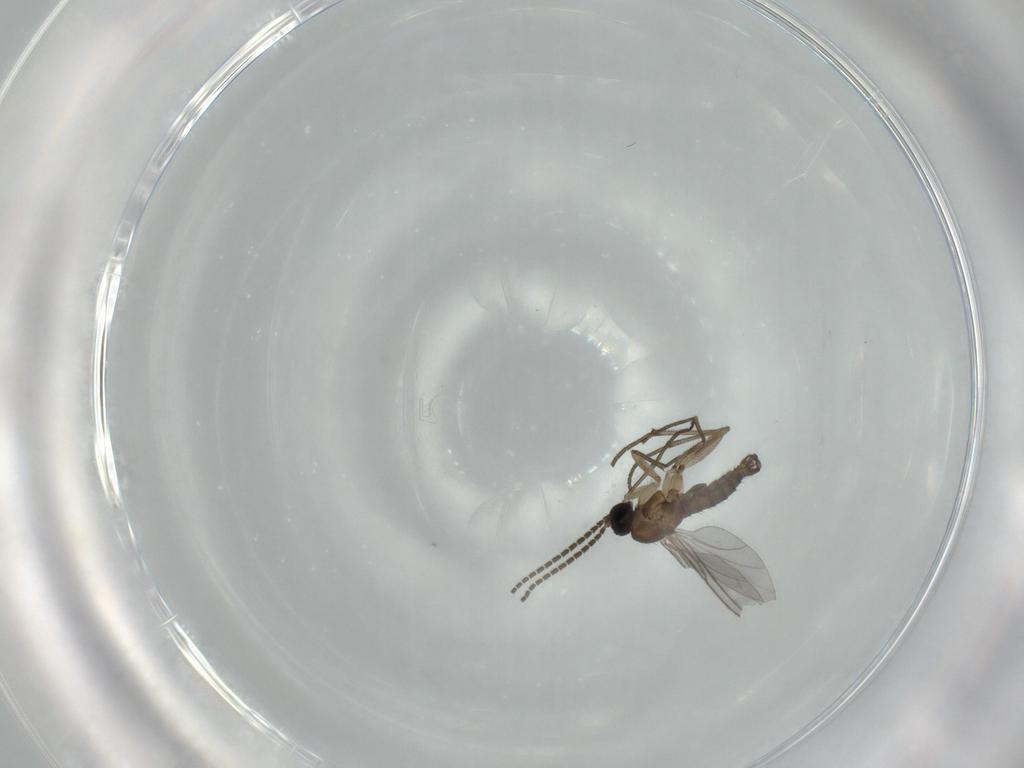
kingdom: Animalia
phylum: Arthropoda
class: Insecta
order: Diptera
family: Sciaridae
